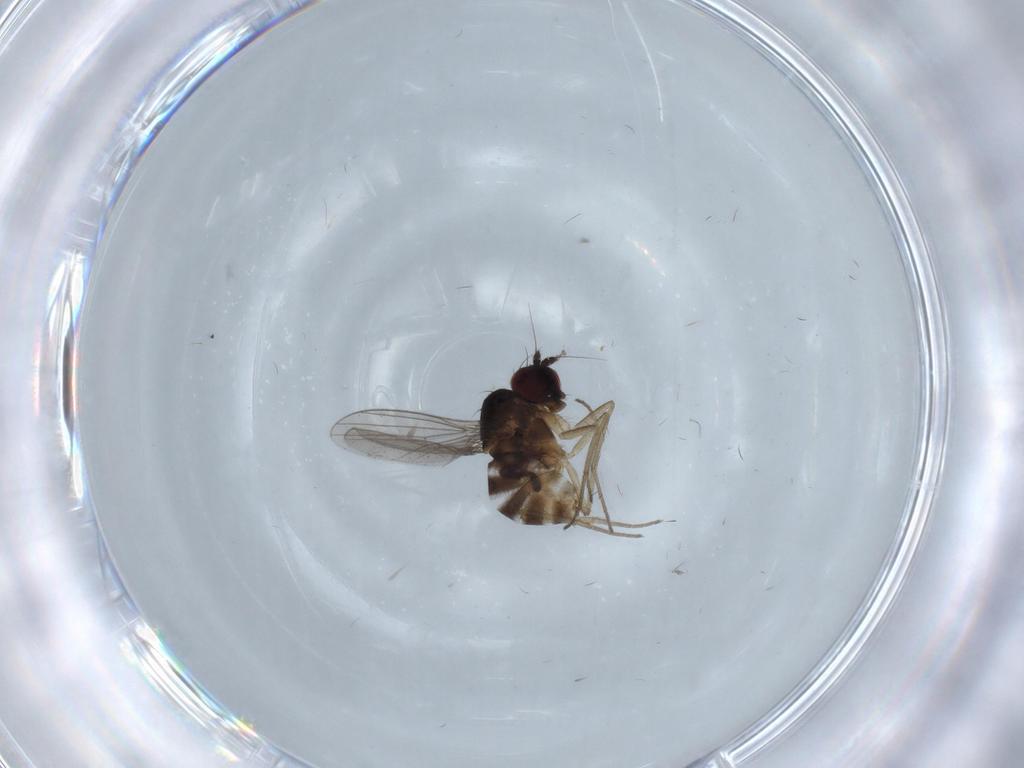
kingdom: Animalia
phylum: Arthropoda
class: Insecta
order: Diptera
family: Sciaridae
